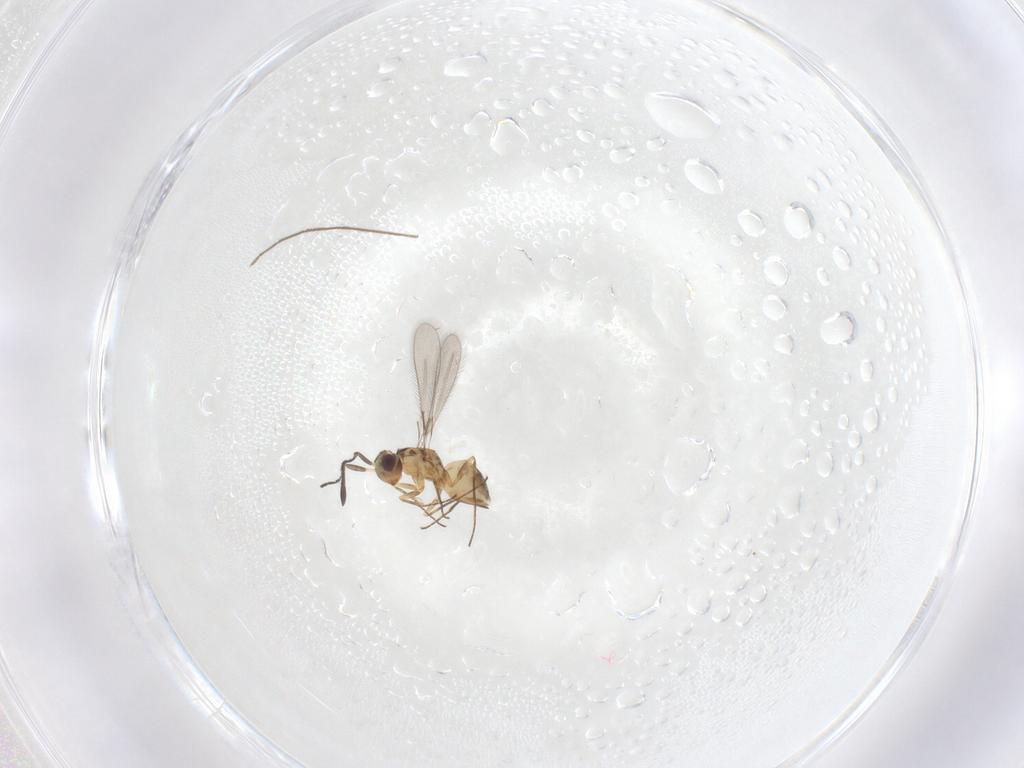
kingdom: Animalia
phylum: Arthropoda
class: Insecta
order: Hymenoptera
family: Mymaridae
